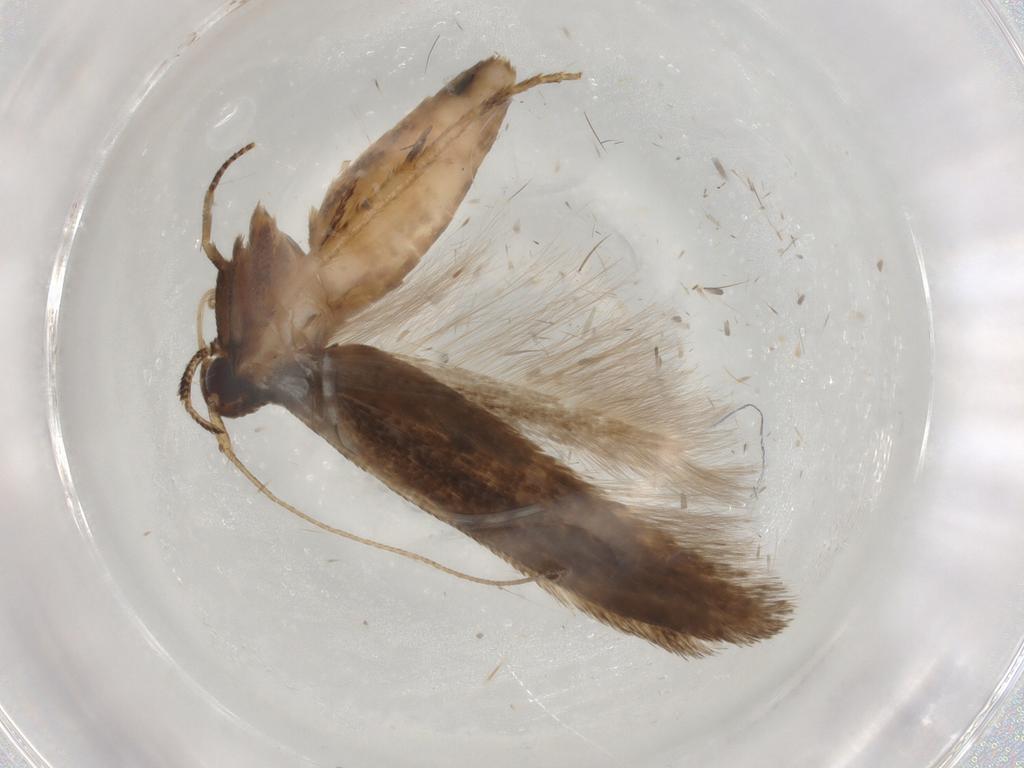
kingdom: Animalia
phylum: Arthropoda
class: Insecta
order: Lepidoptera
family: Cosmopterigidae
